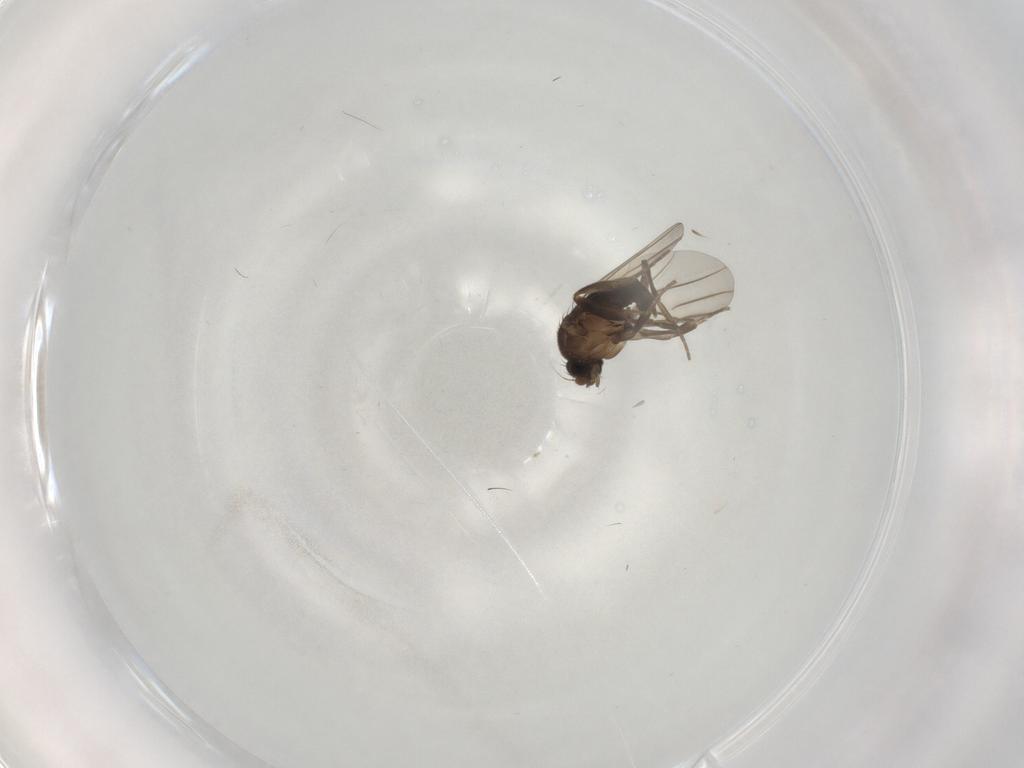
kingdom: Animalia
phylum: Arthropoda
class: Insecta
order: Diptera
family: Phoridae
